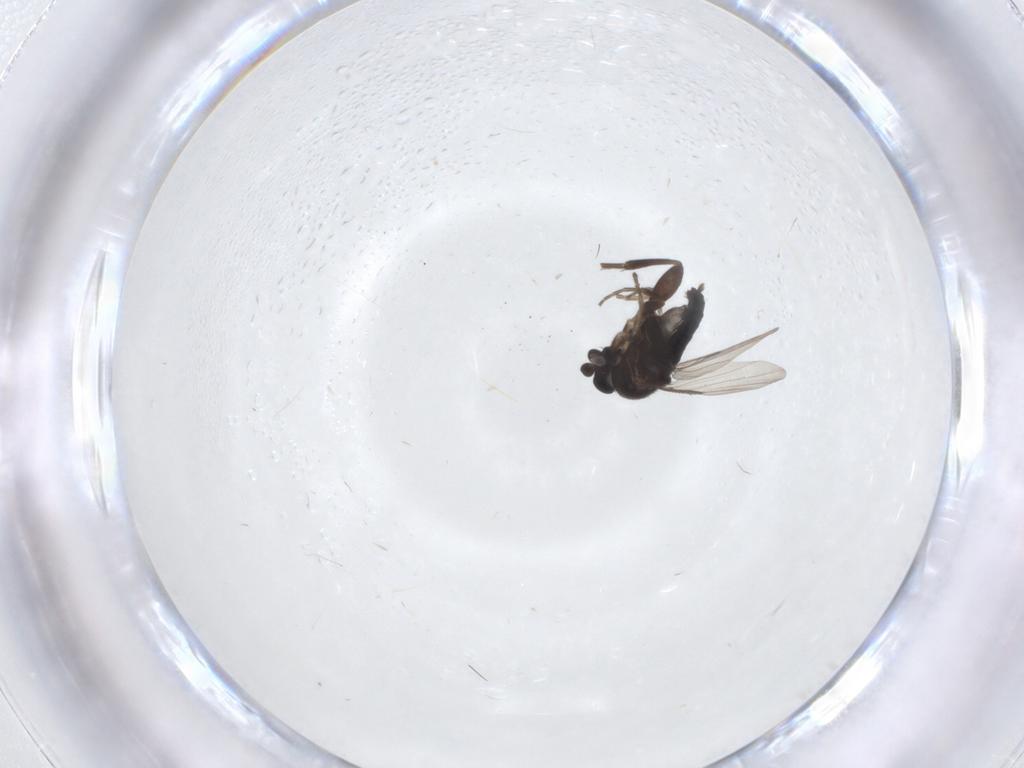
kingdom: Animalia
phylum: Arthropoda
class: Insecta
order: Diptera
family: Phoridae
